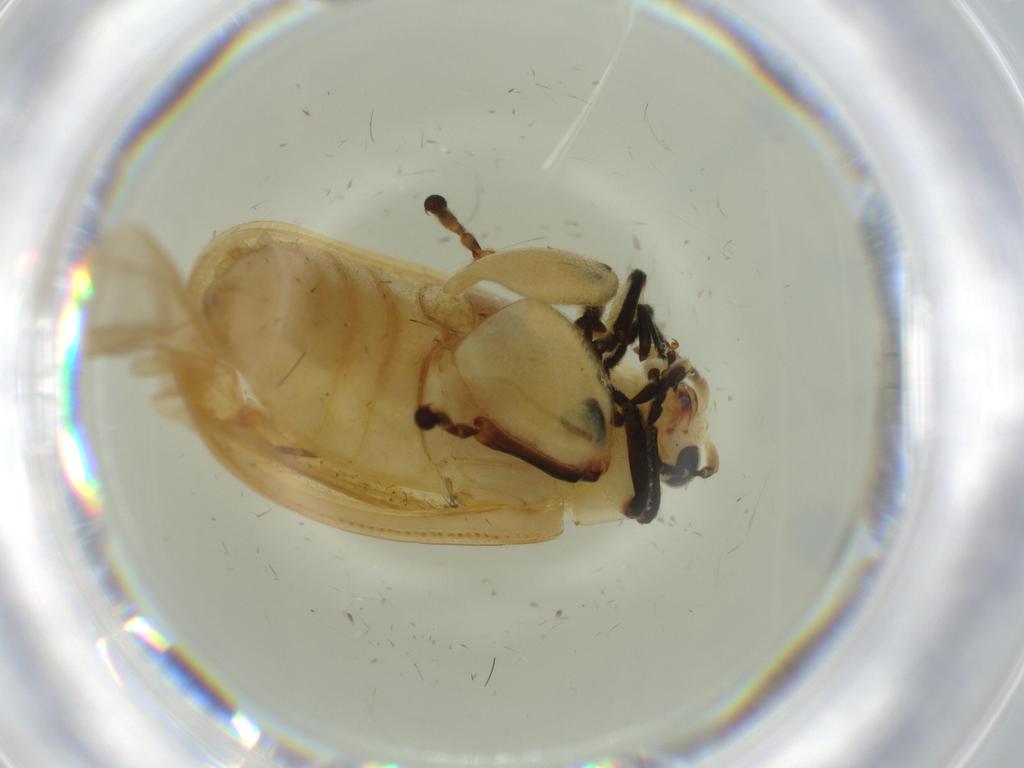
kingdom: Animalia
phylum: Arthropoda
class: Insecta
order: Coleoptera
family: Chrysomelidae
